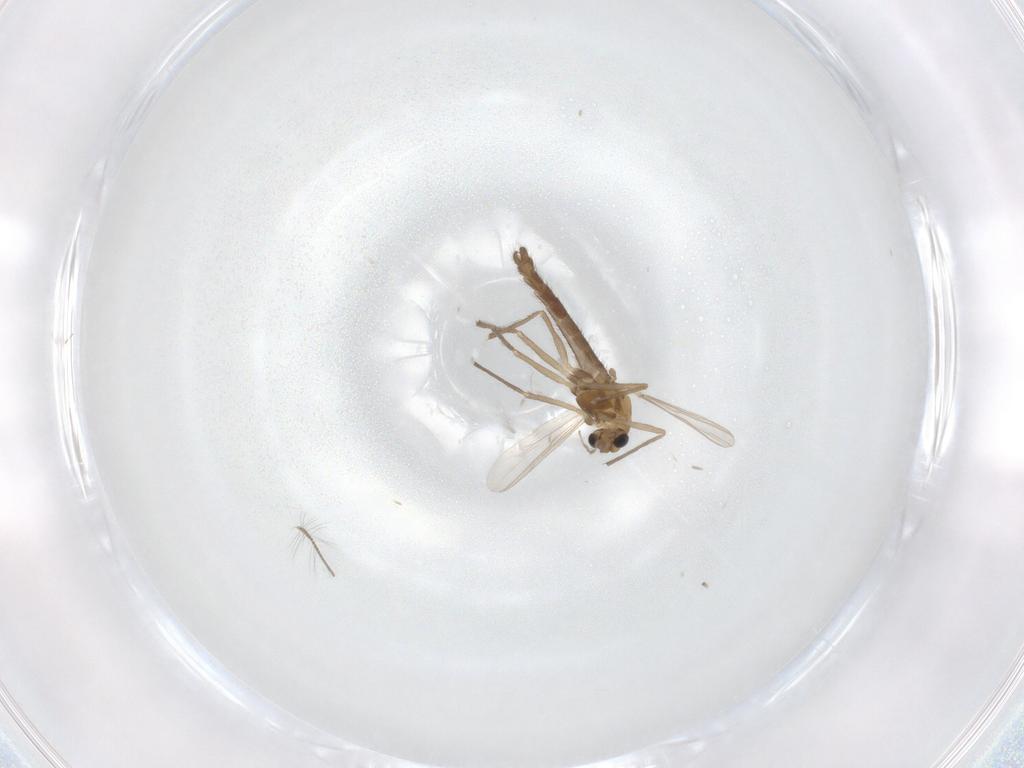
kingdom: Animalia
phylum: Arthropoda
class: Insecta
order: Diptera
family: Chironomidae
